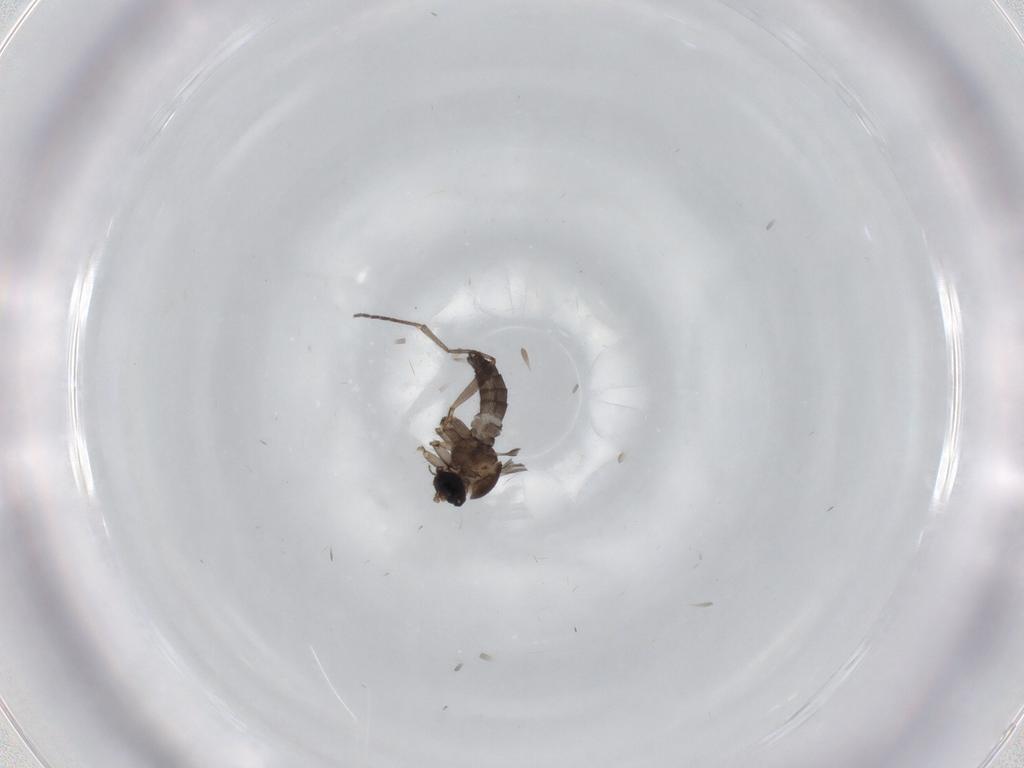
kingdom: Animalia
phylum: Arthropoda
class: Insecta
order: Diptera
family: Sciaridae
